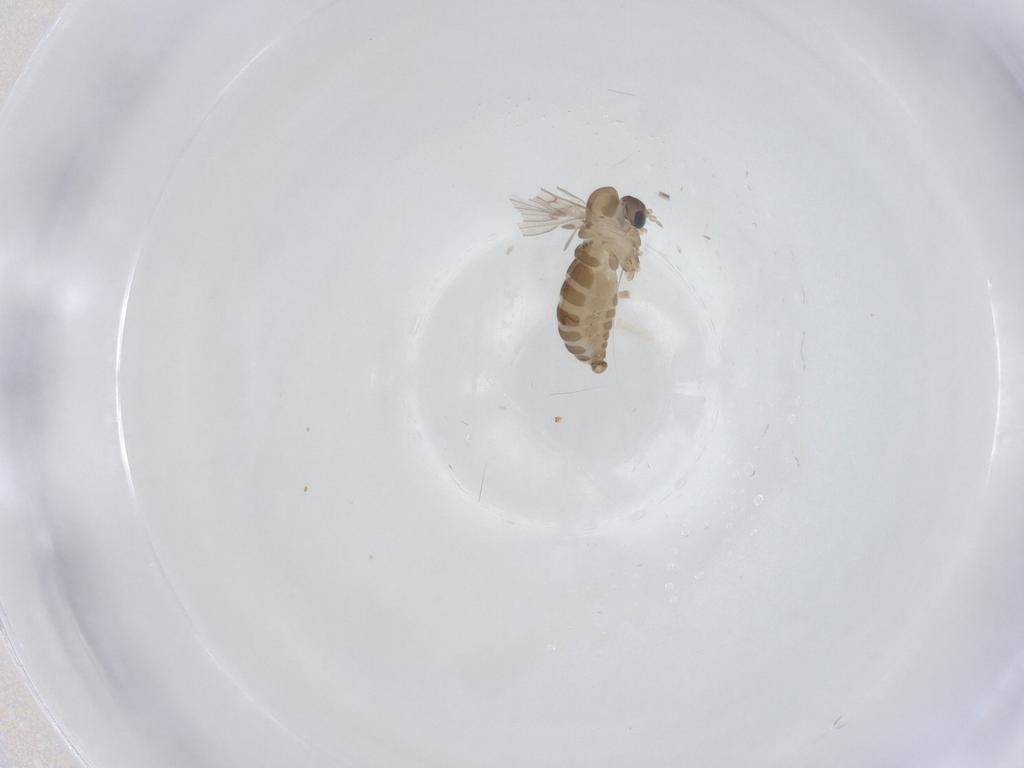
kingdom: Animalia
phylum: Arthropoda
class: Insecta
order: Diptera
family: Psychodidae
